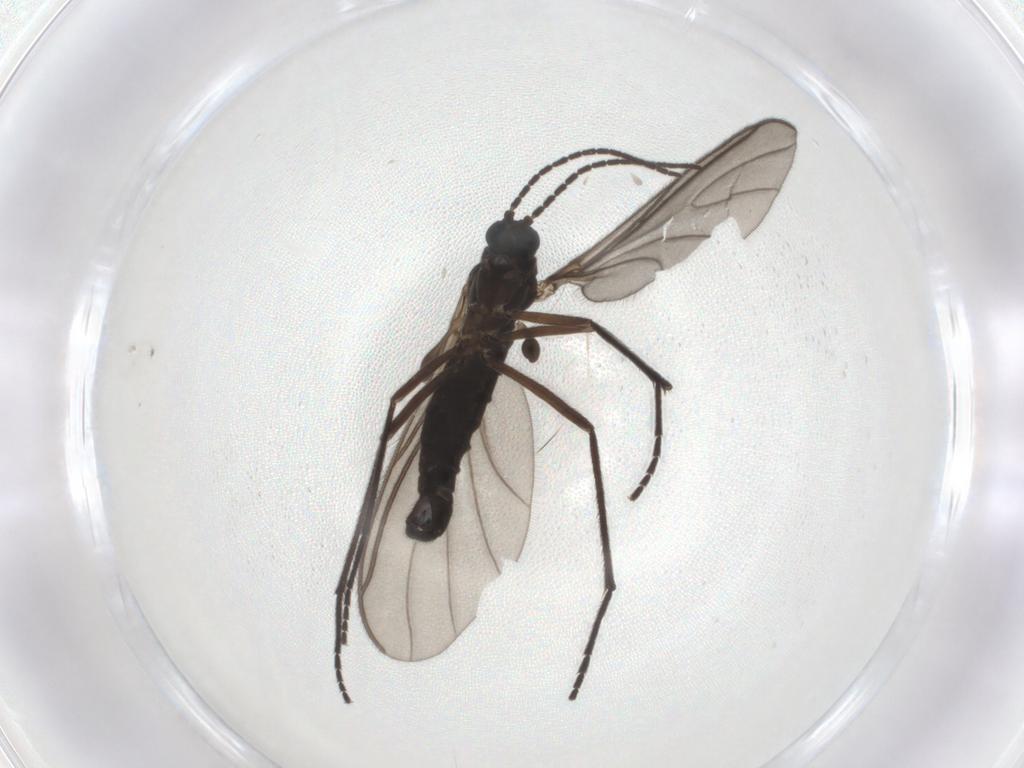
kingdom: Animalia
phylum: Arthropoda
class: Insecta
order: Diptera
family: Sciaridae
